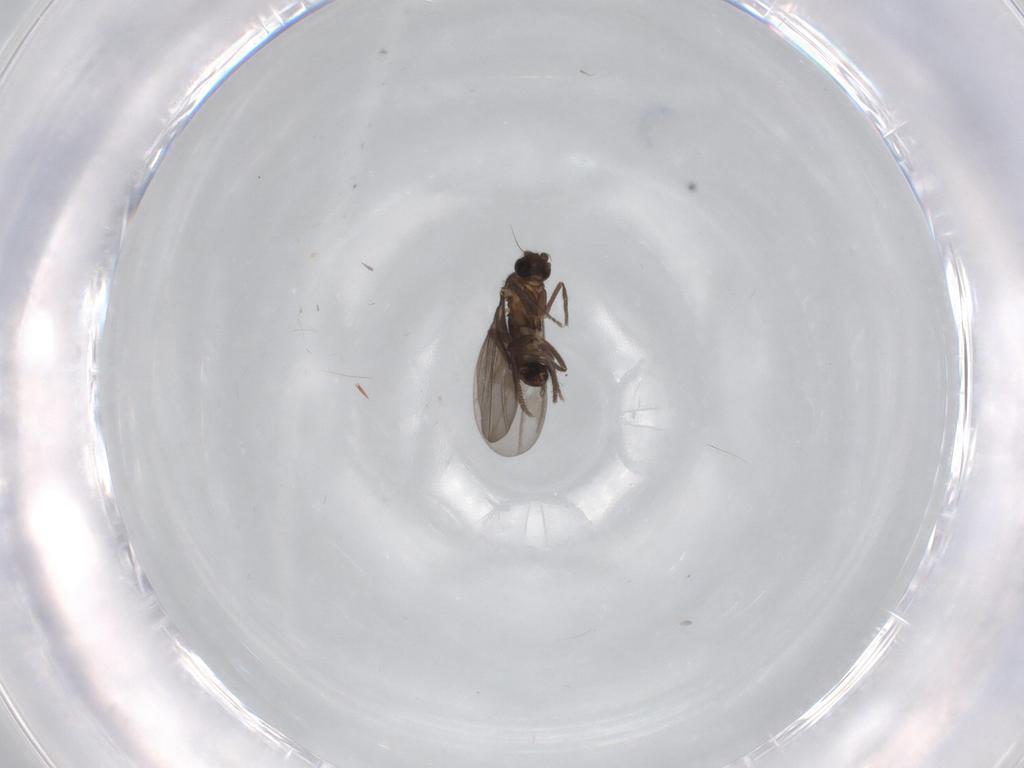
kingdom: Animalia
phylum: Arthropoda
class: Insecta
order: Diptera
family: Phoridae
